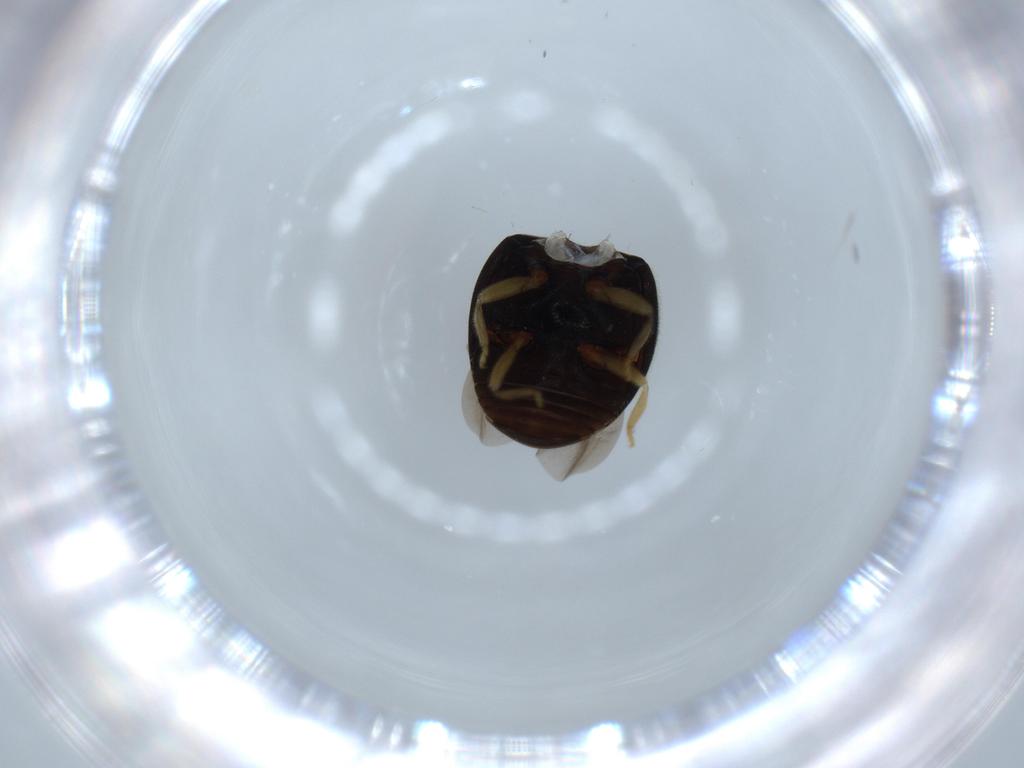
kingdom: Animalia
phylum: Arthropoda
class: Insecta
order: Coleoptera
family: Coccinellidae
